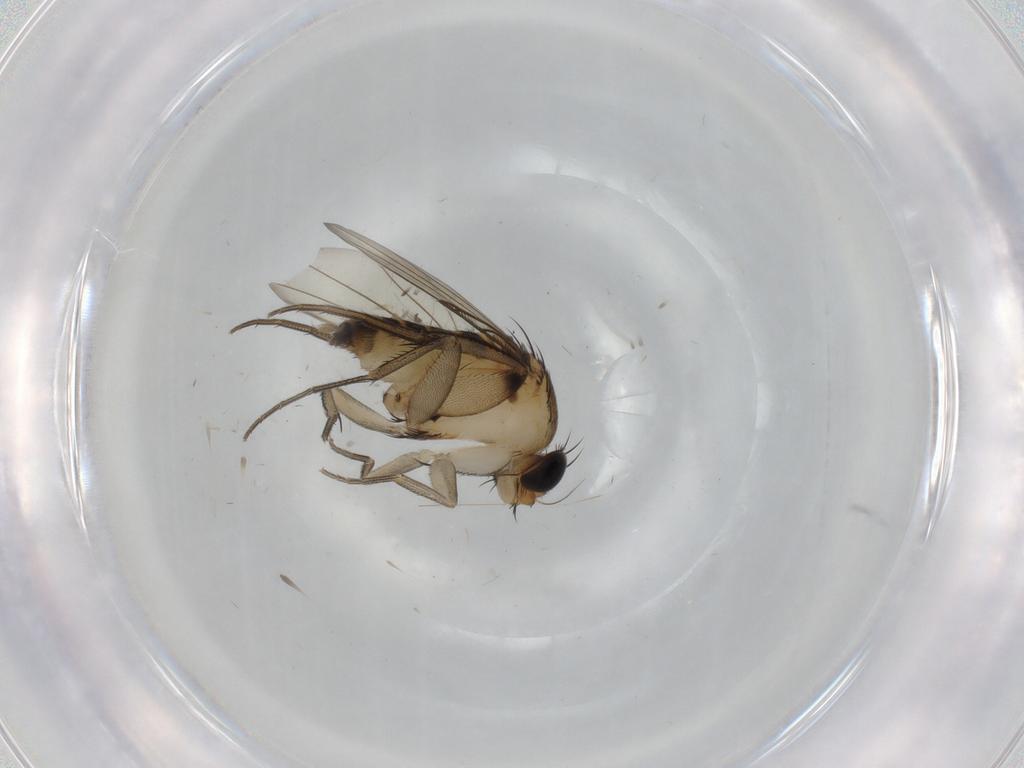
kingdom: Animalia
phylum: Arthropoda
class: Insecta
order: Diptera
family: Phoridae
